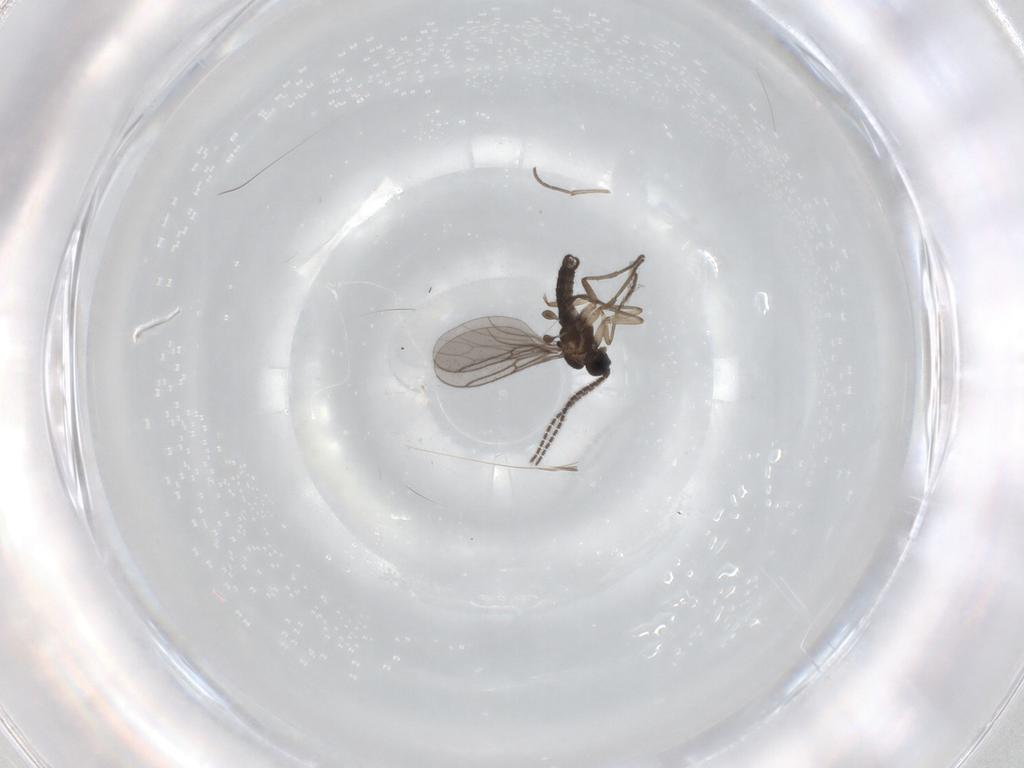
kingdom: Animalia
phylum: Arthropoda
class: Insecta
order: Diptera
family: Sciaridae
